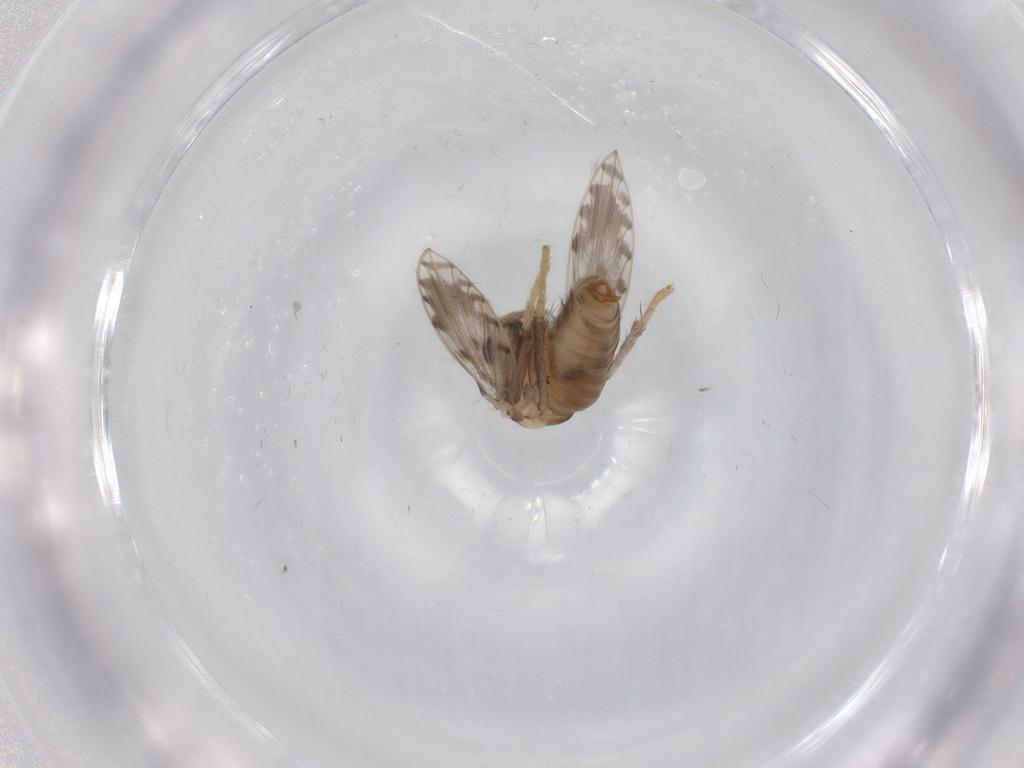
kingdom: Animalia
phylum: Arthropoda
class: Insecta
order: Diptera
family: Psychodidae
